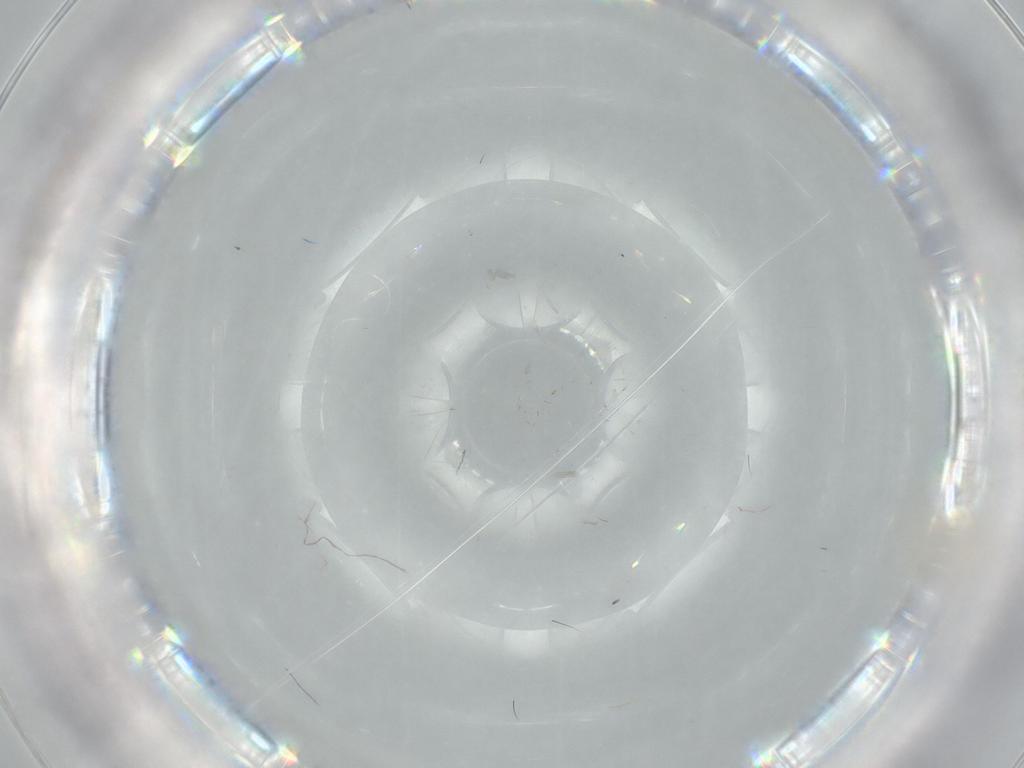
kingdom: Animalia
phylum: Arthropoda
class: Arachnida
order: Trombidiformes
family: Anystidae
